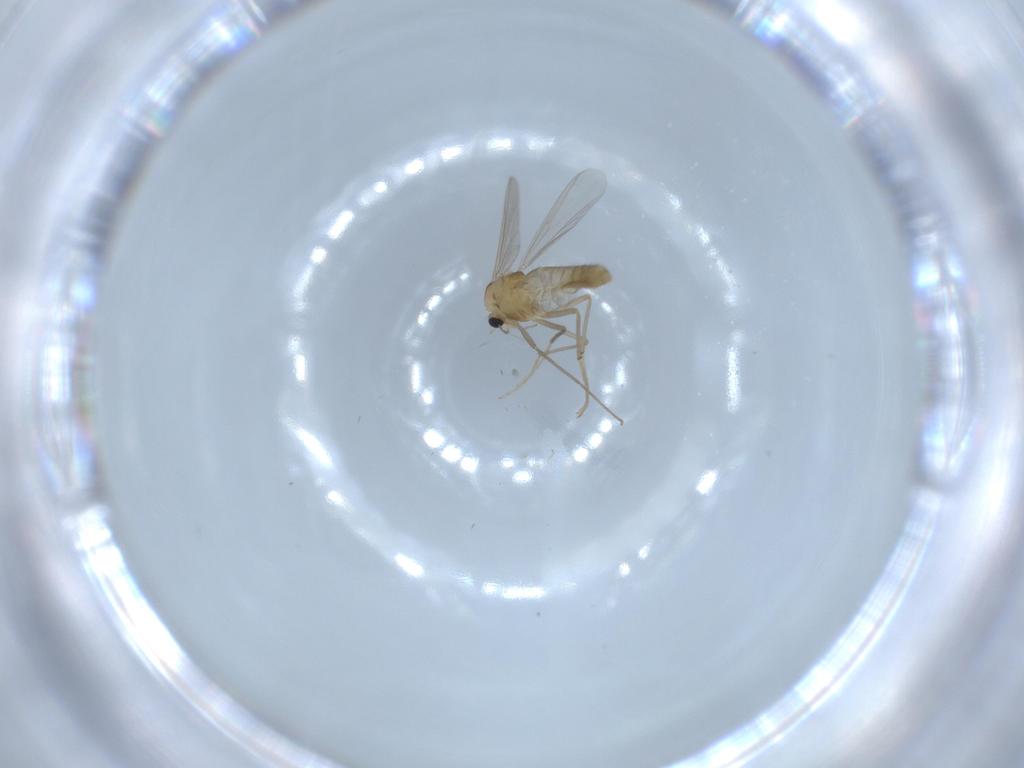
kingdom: Animalia
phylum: Arthropoda
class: Insecta
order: Diptera
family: Chironomidae
